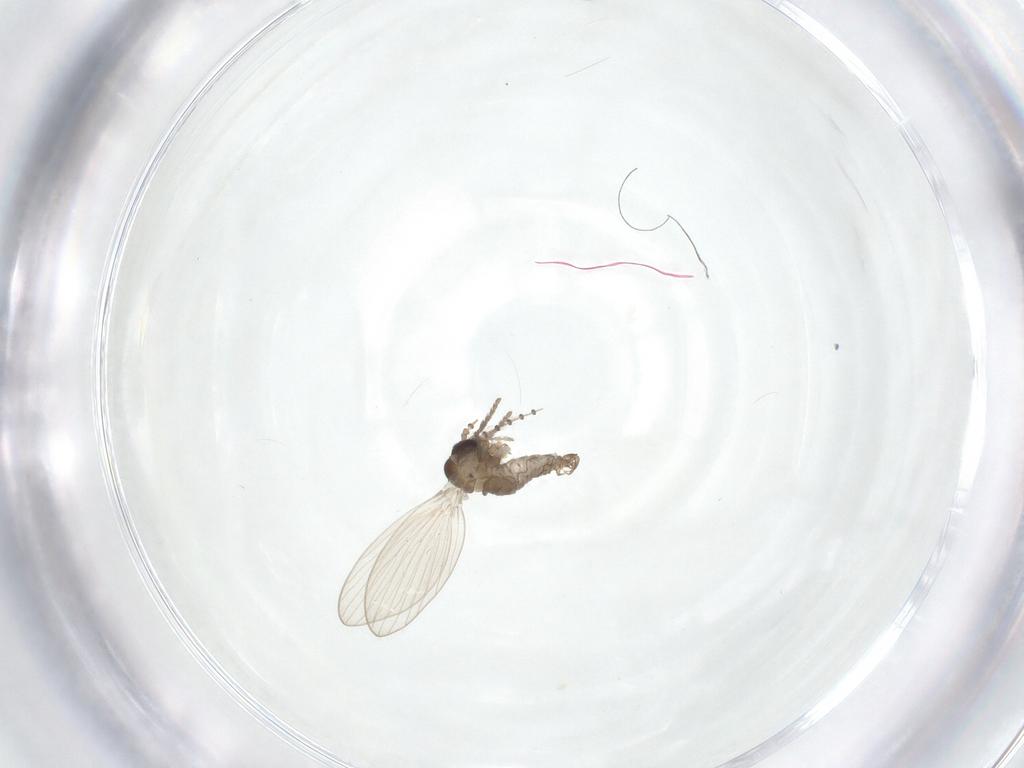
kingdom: Animalia
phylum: Arthropoda
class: Insecta
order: Diptera
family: Psychodidae
